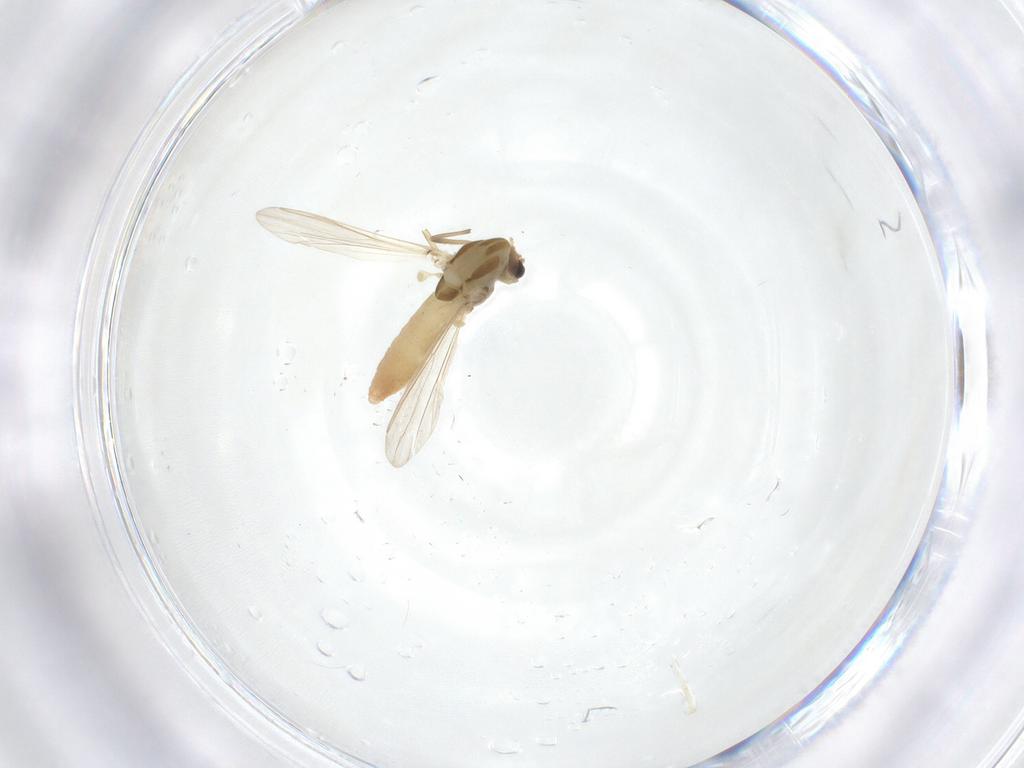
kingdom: Animalia
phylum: Arthropoda
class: Insecta
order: Diptera
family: Chironomidae
